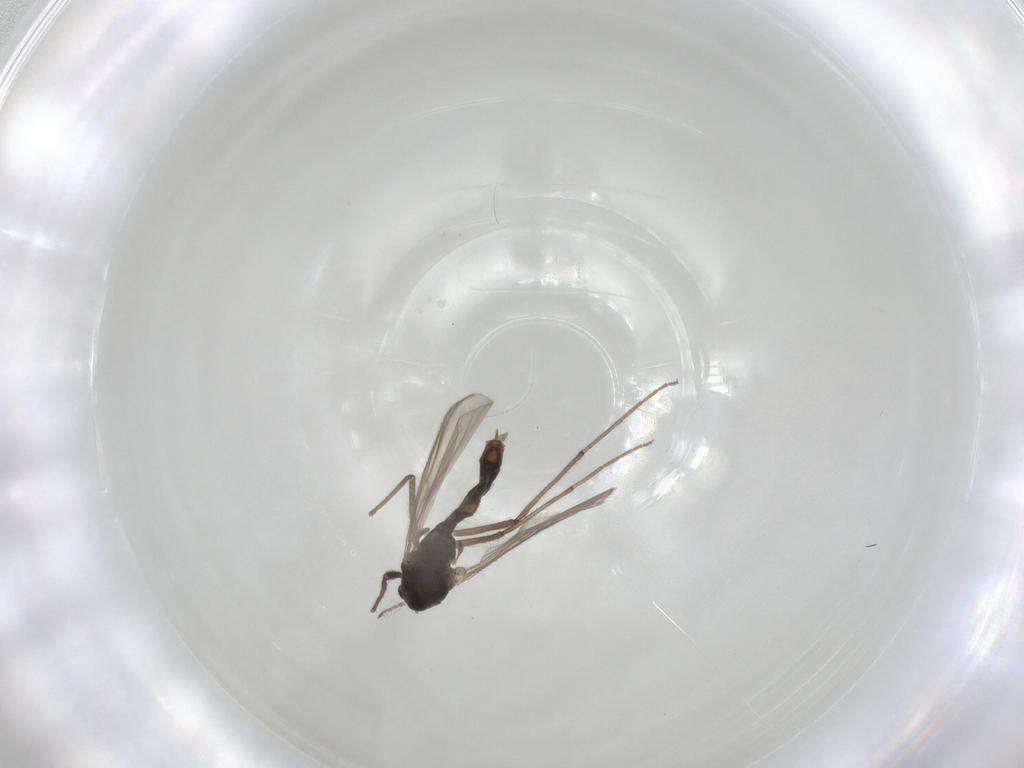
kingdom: Animalia
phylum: Arthropoda
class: Insecta
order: Diptera
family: Chironomidae
